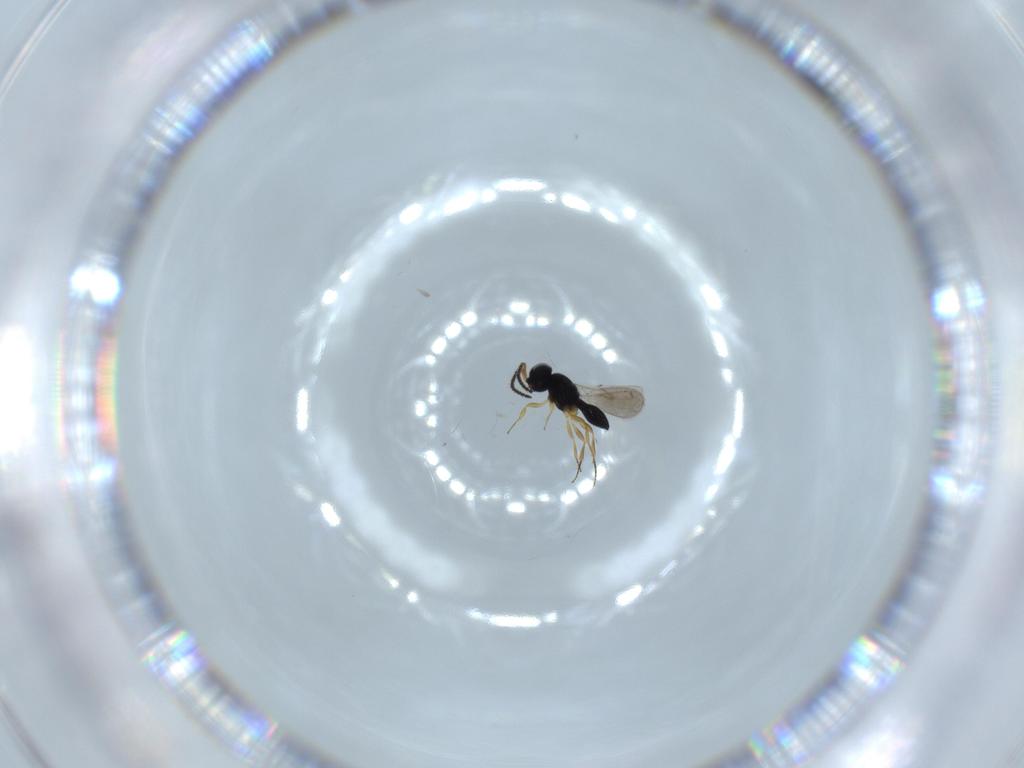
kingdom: Animalia
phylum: Arthropoda
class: Insecta
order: Hymenoptera
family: Scelionidae
